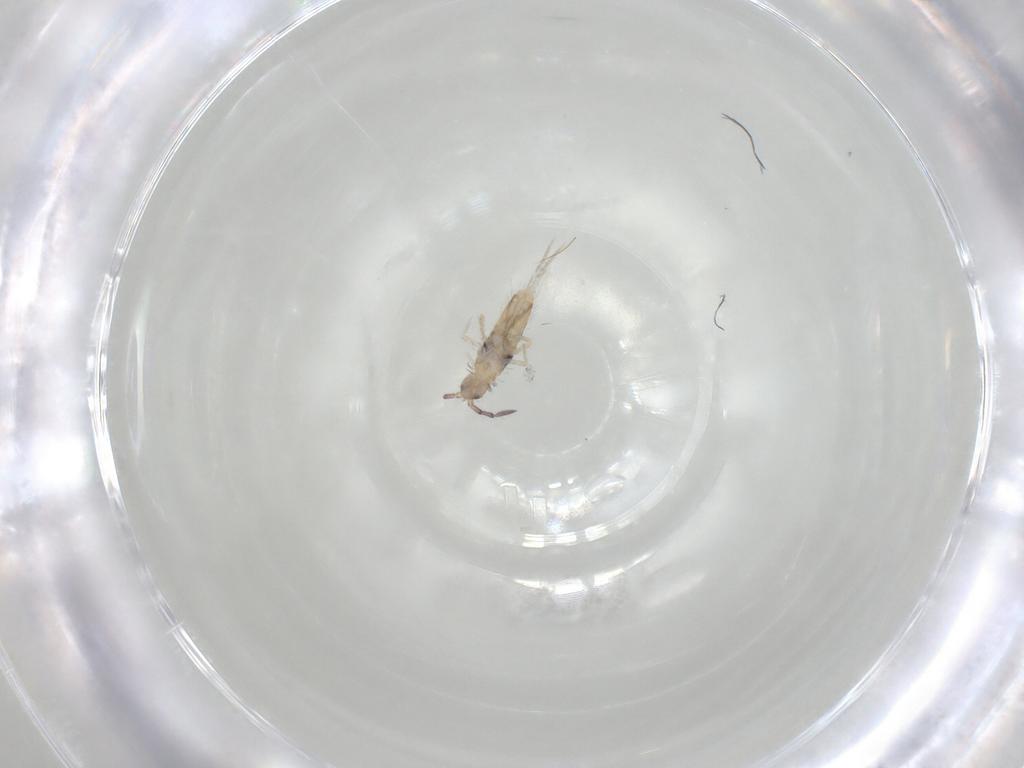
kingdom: Animalia
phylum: Arthropoda
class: Collembola
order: Entomobryomorpha
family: Entomobryidae
